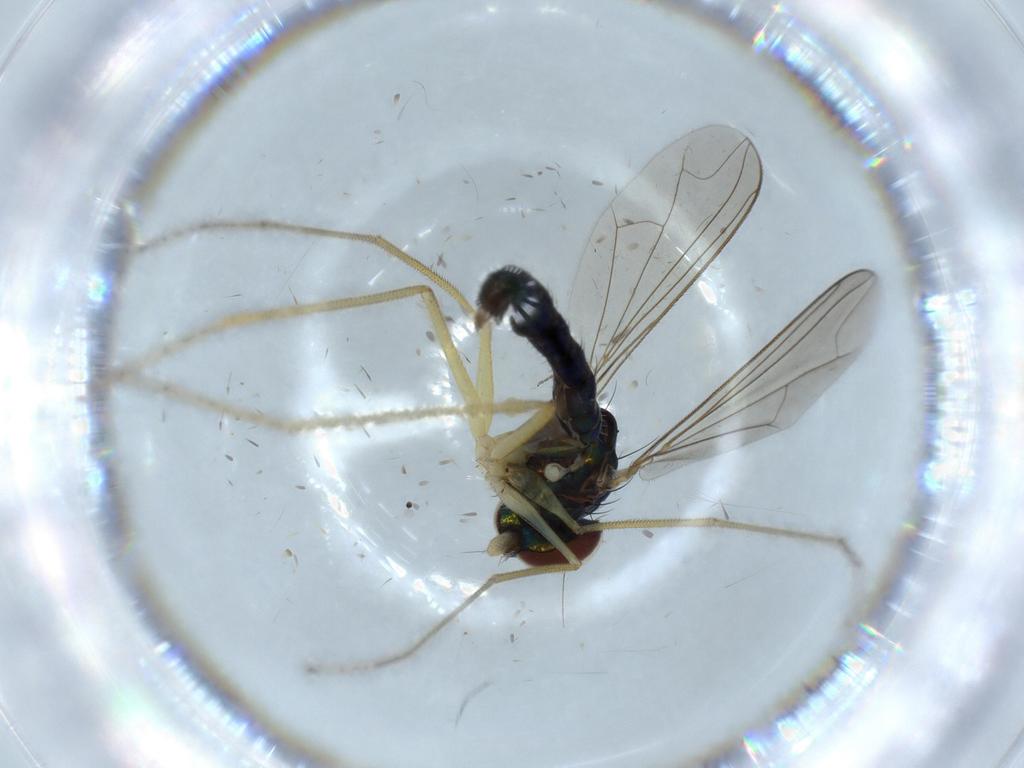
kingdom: Animalia
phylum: Arthropoda
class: Insecta
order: Diptera
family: Dolichopodidae
